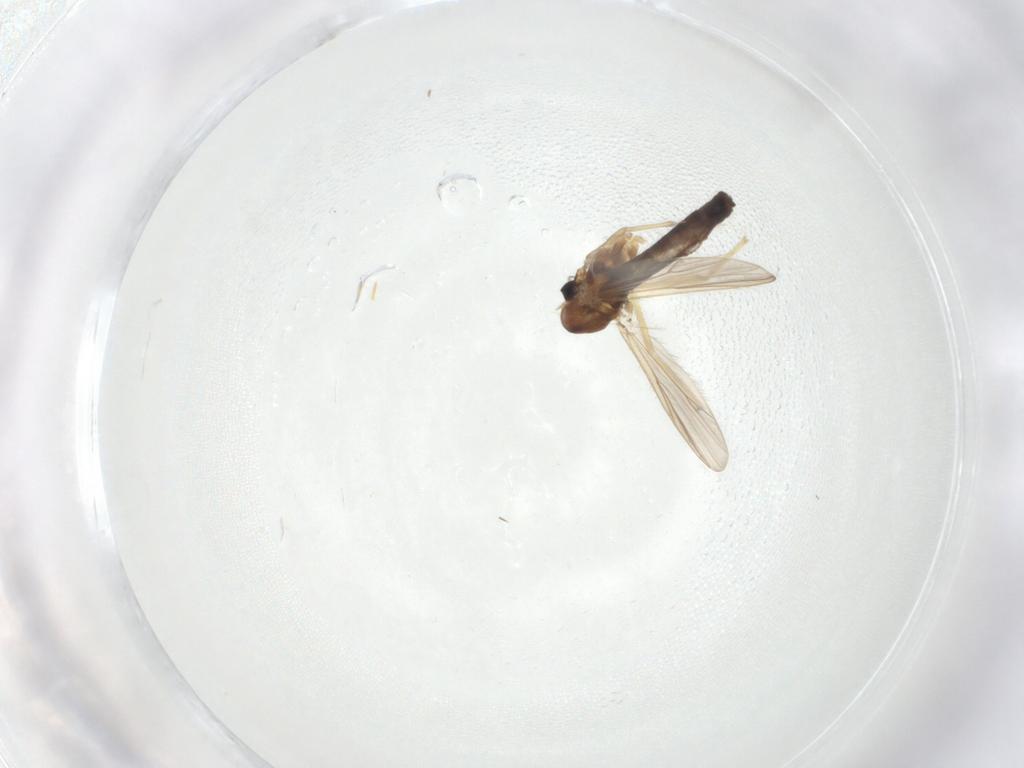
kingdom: Animalia
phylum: Arthropoda
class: Insecta
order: Diptera
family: Chironomidae
